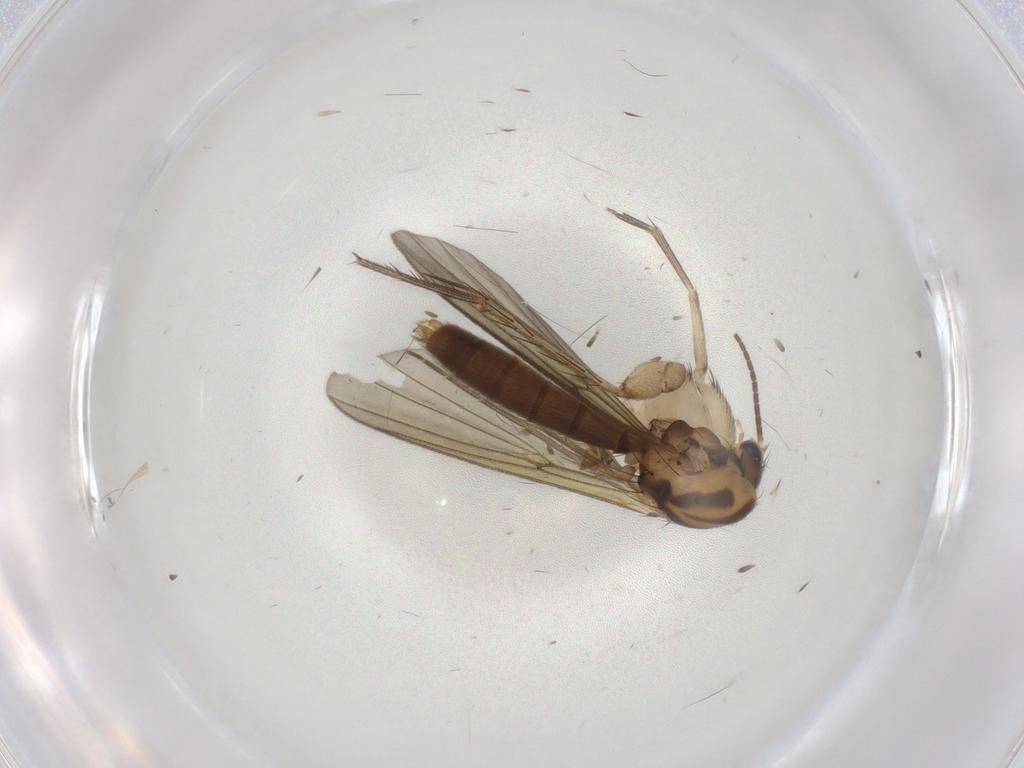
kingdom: Animalia
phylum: Arthropoda
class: Insecta
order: Diptera
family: Mycetophilidae
